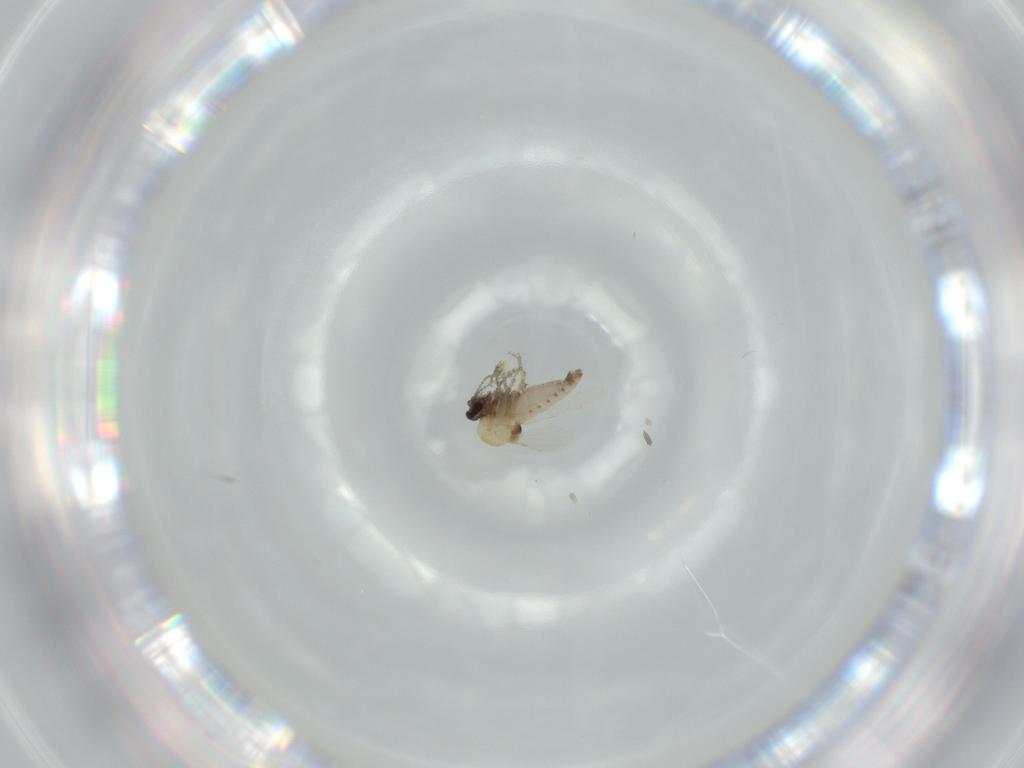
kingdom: Animalia
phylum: Arthropoda
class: Insecta
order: Diptera
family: Ceratopogonidae
